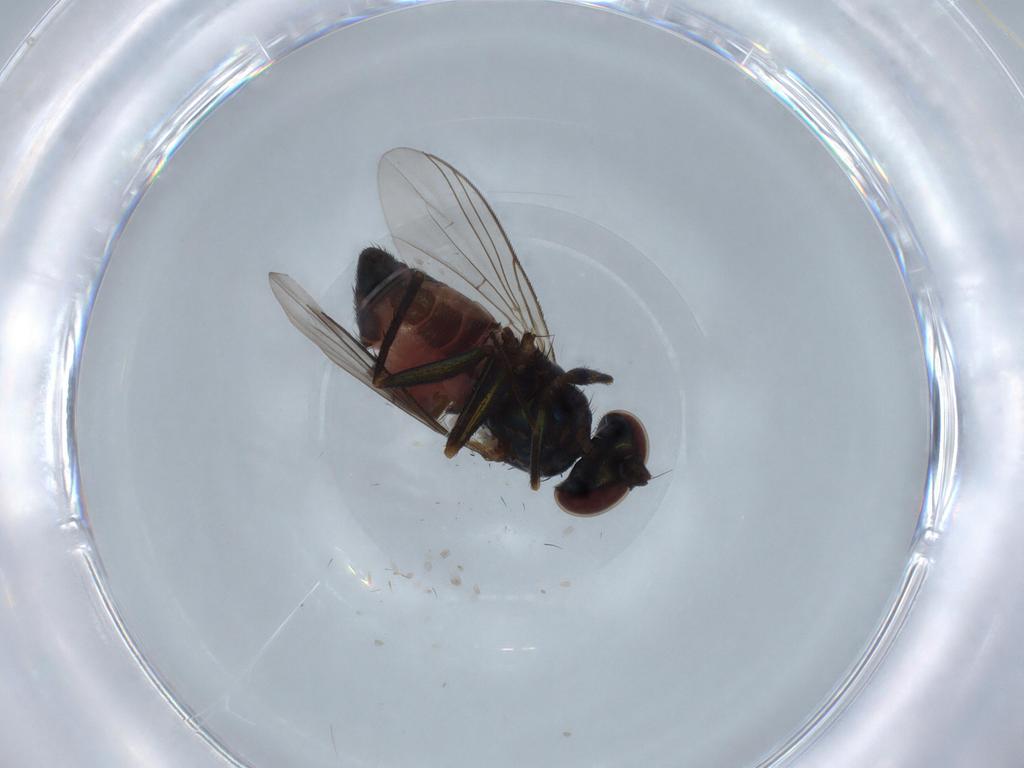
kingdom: Animalia
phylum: Arthropoda
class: Insecta
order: Diptera
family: Dolichopodidae
